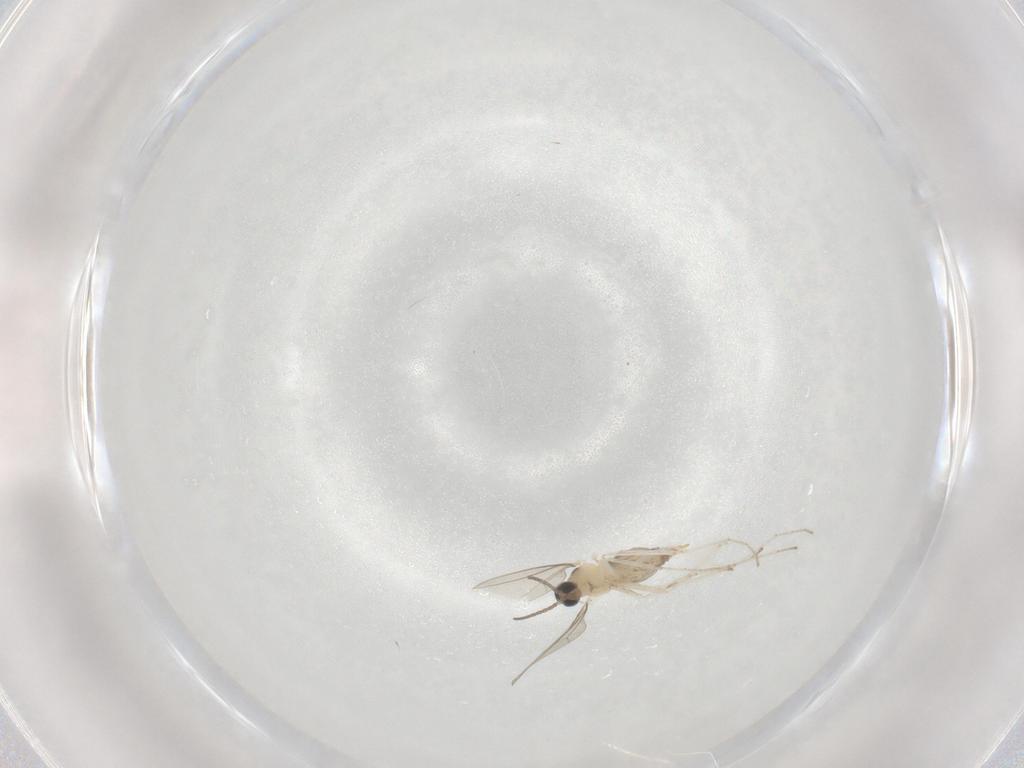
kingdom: Animalia
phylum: Arthropoda
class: Insecta
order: Diptera
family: Phoridae
